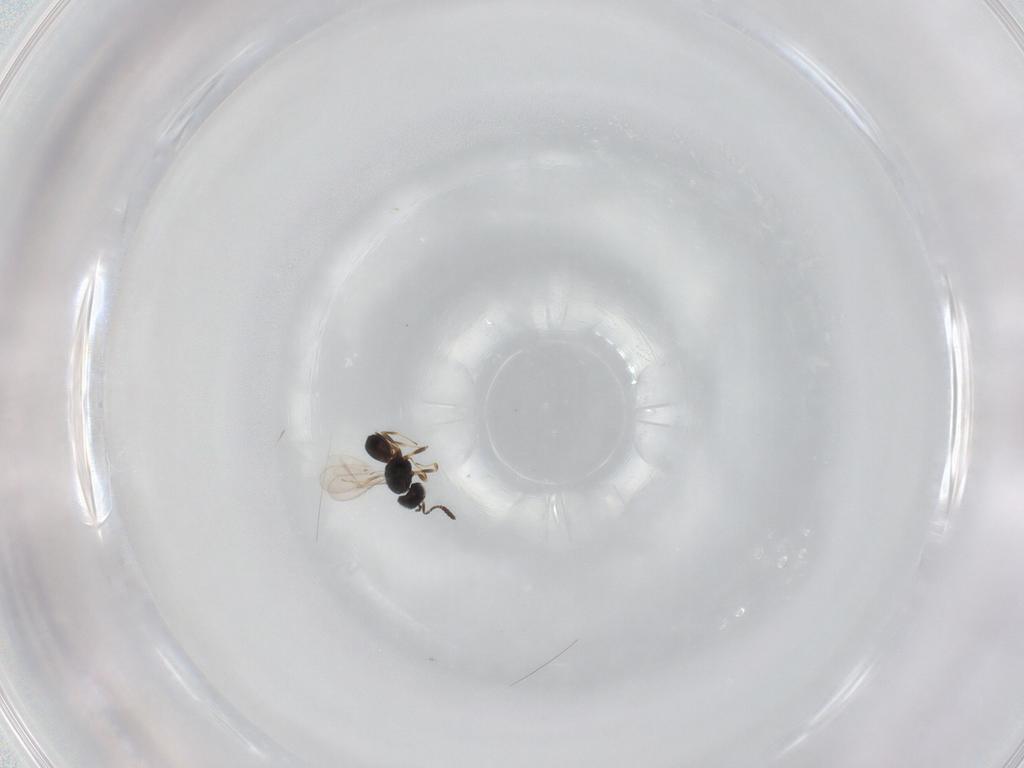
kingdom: Animalia
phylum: Arthropoda
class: Insecta
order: Hymenoptera
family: Scelionidae
